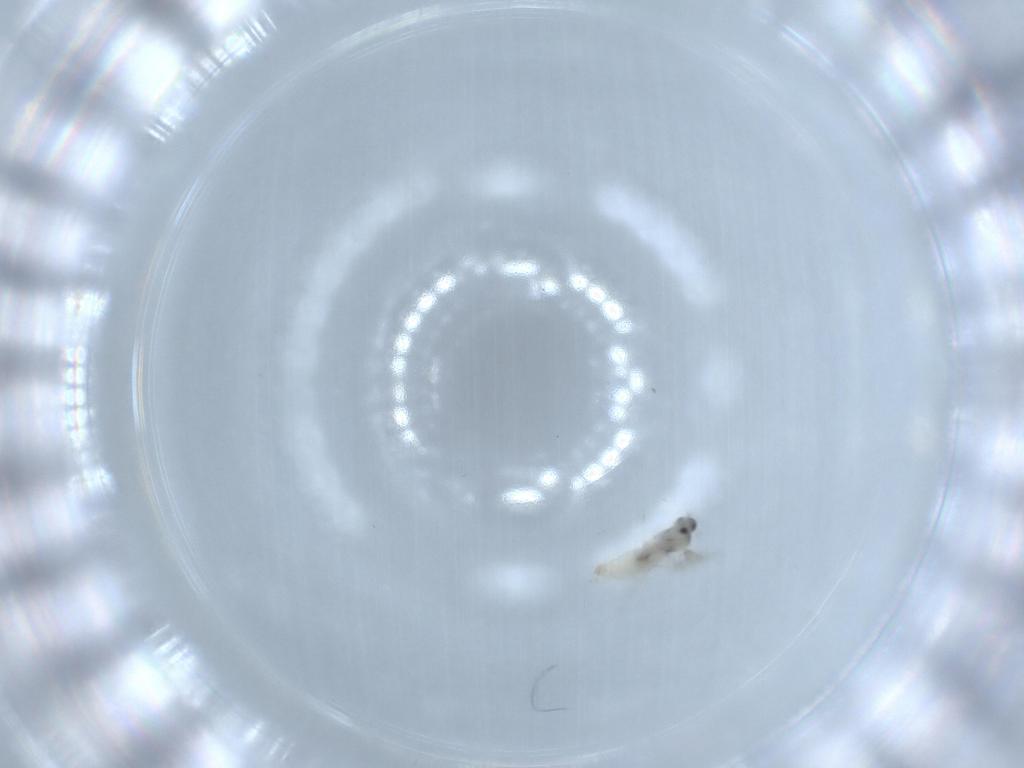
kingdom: Animalia
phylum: Arthropoda
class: Insecta
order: Diptera
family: Cecidomyiidae
